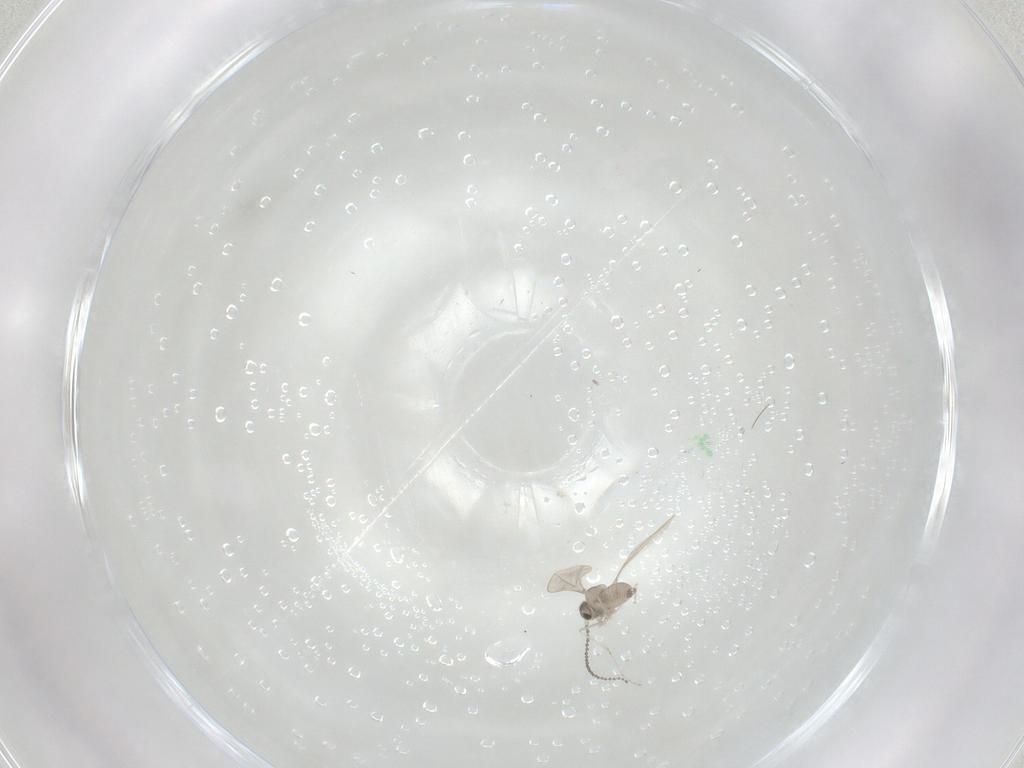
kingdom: Animalia
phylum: Arthropoda
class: Insecta
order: Diptera
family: Cecidomyiidae
